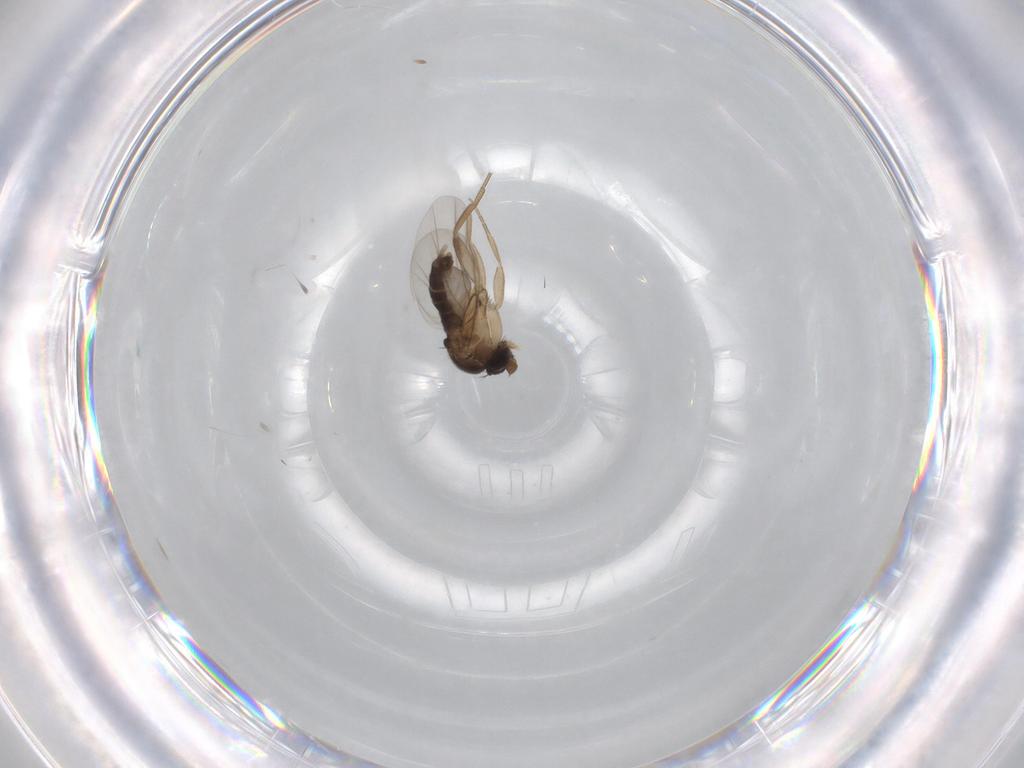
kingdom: Animalia
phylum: Arthropoda
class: Insecta
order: Diptera
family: Phoridae
